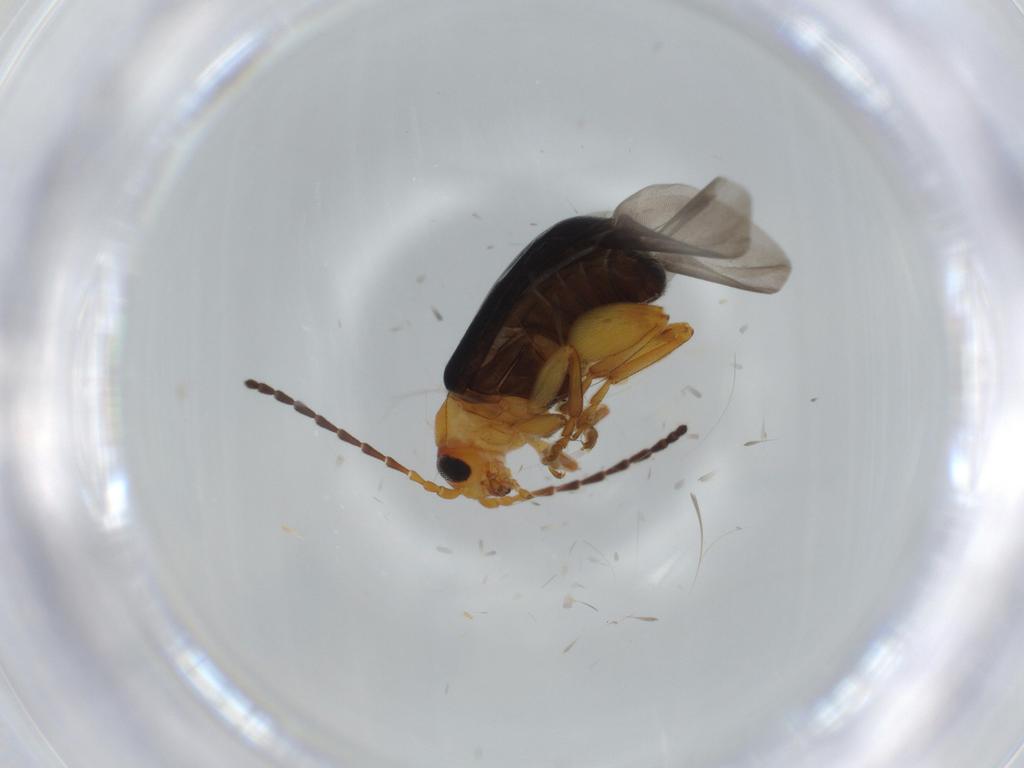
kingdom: Animalia
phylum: Arthropoda
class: Insecta
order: Coleoptera
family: Chrysomelidae
